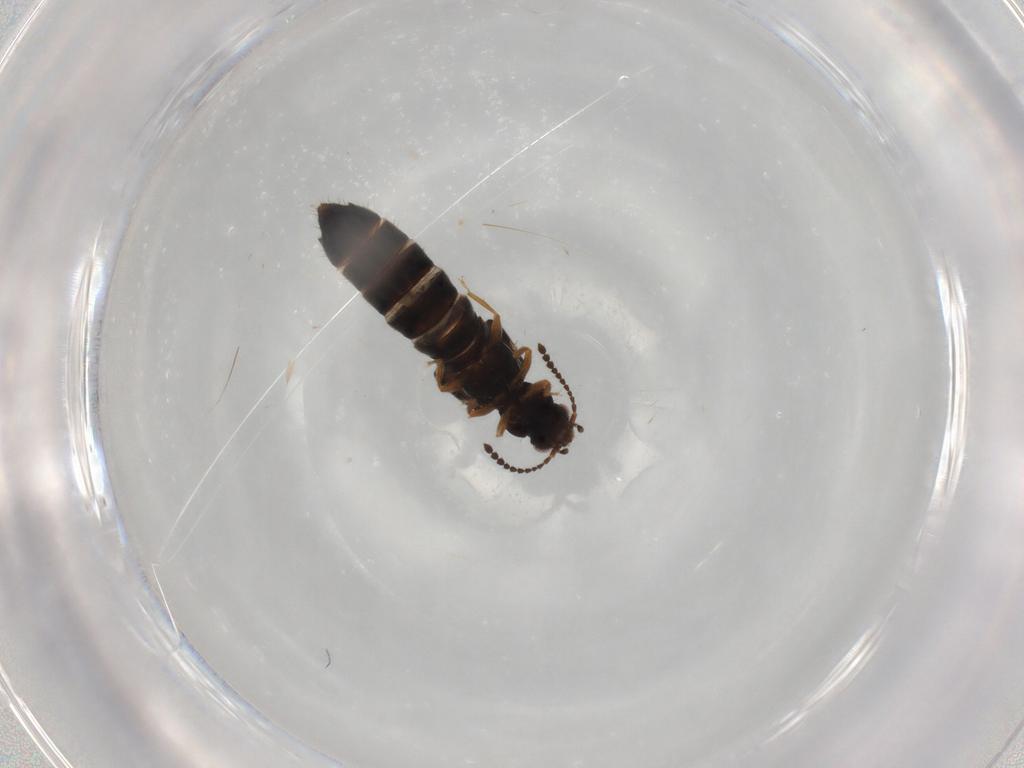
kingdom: Animalia
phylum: Arthropoda
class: Insecta
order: Coleoptera
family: Staphylinidae
